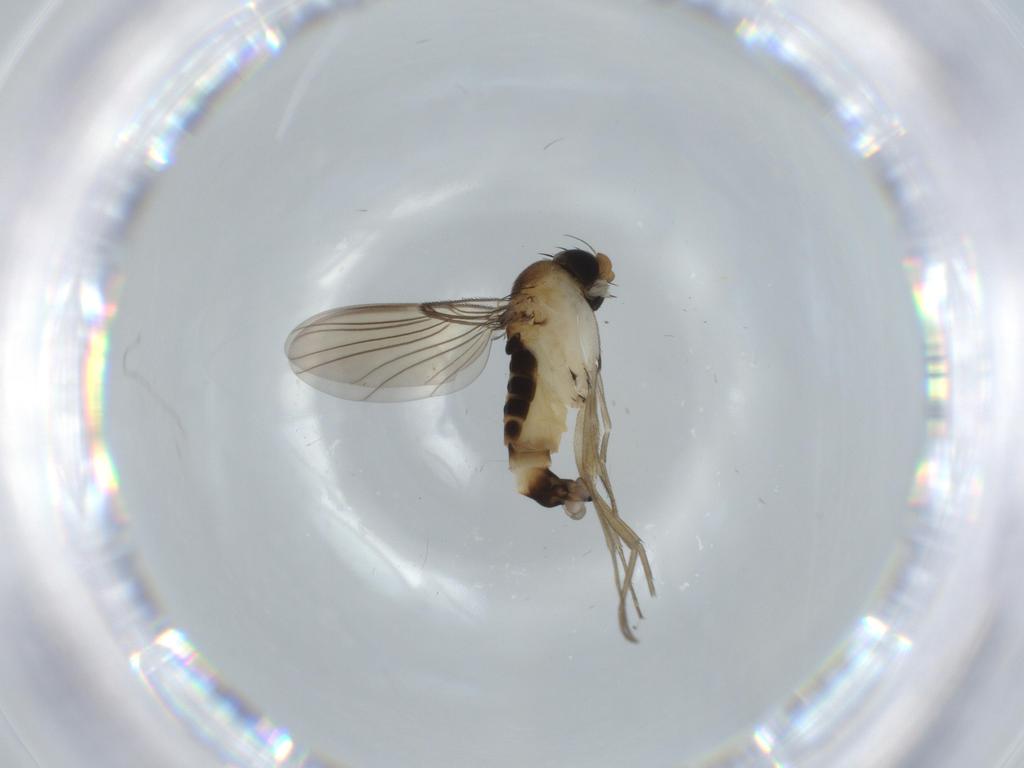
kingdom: Animalia
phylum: Arthropoda
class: Insecta
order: Diptera
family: Phoridae
